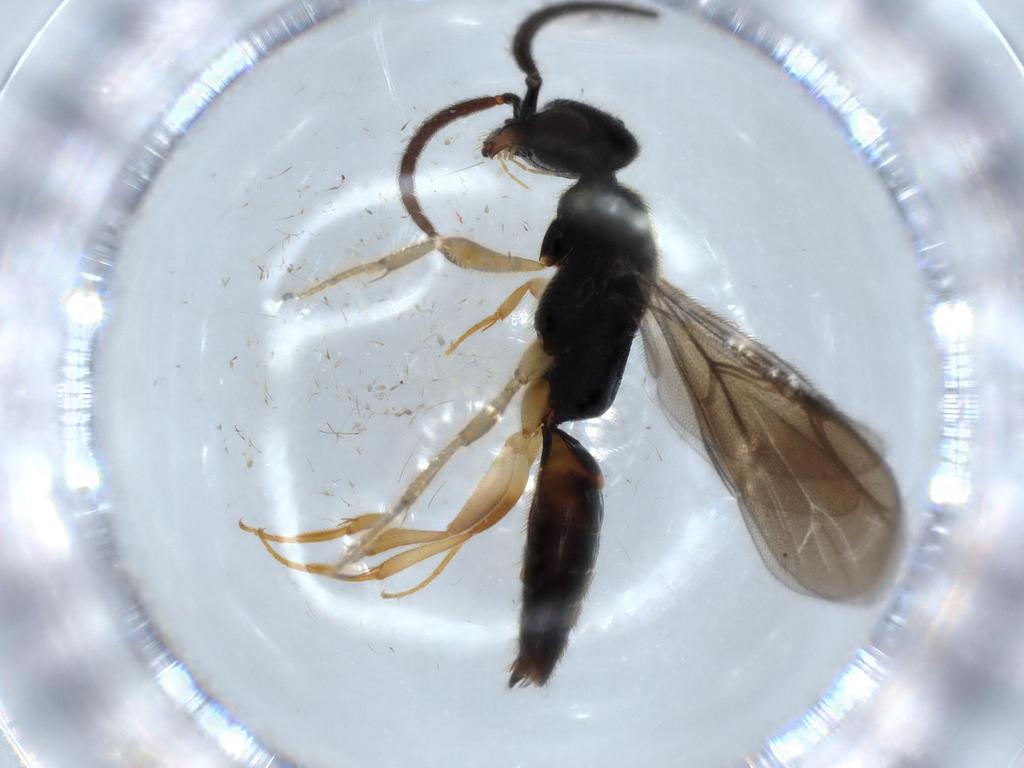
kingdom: Animalia
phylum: Arthropoda
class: Insecta
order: Hymenoptera
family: Bethylidae
